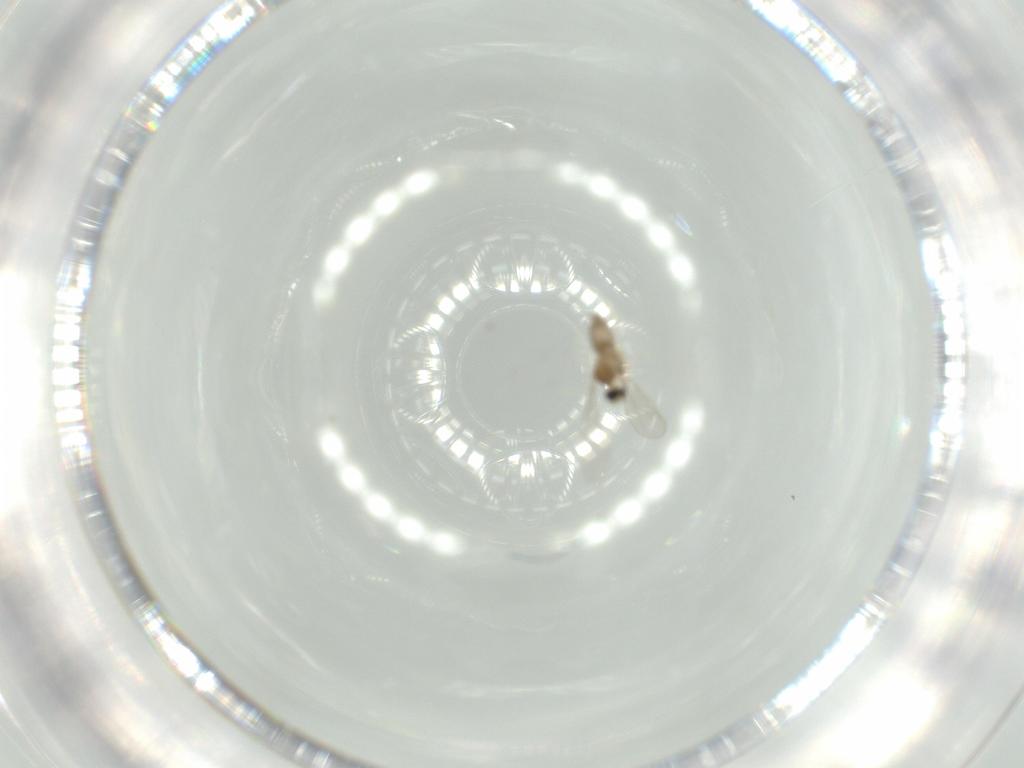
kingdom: Animalia
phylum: Arthropoda
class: Insecta
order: Diptera
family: Cecidomyiidae
